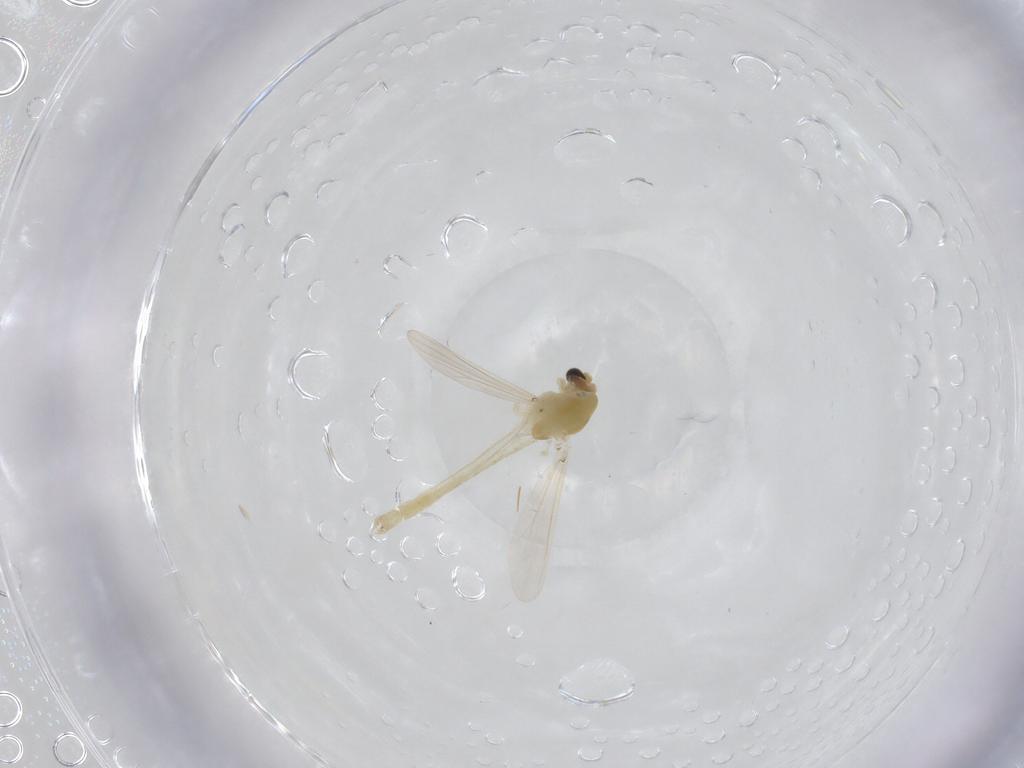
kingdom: Animalia
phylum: Arthropoda
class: Insecta
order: Diptera
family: Chironomidae
